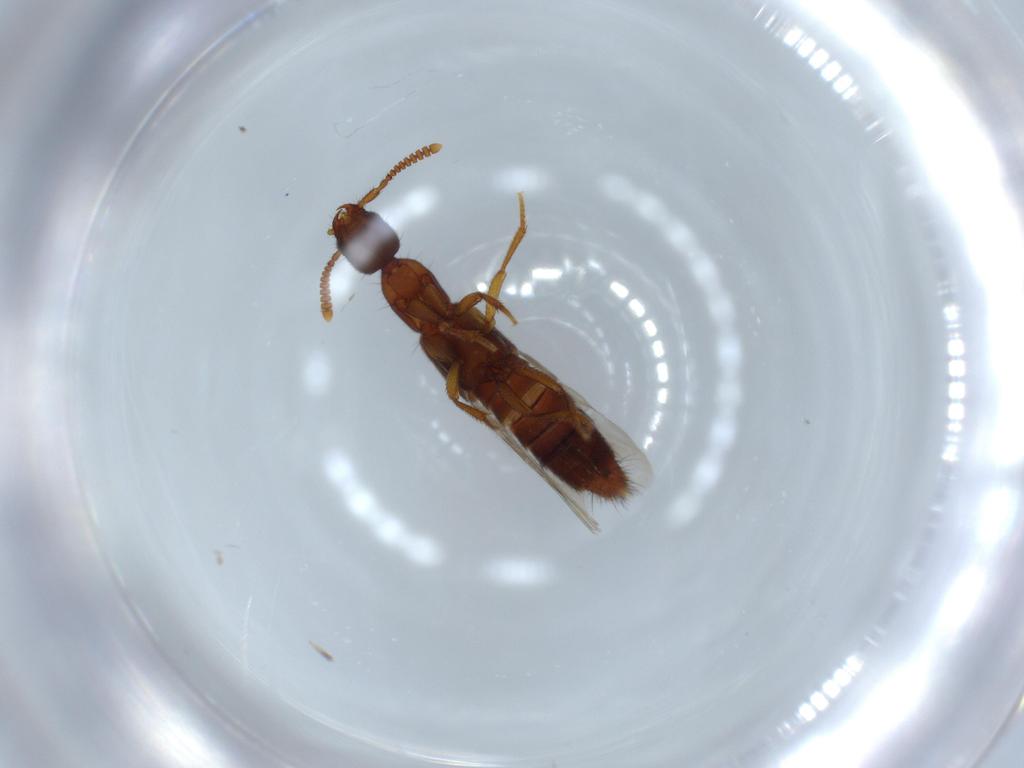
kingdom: Animalia
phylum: Arthropoda
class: Insecta
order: Coleoptera
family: Staphylinidae
